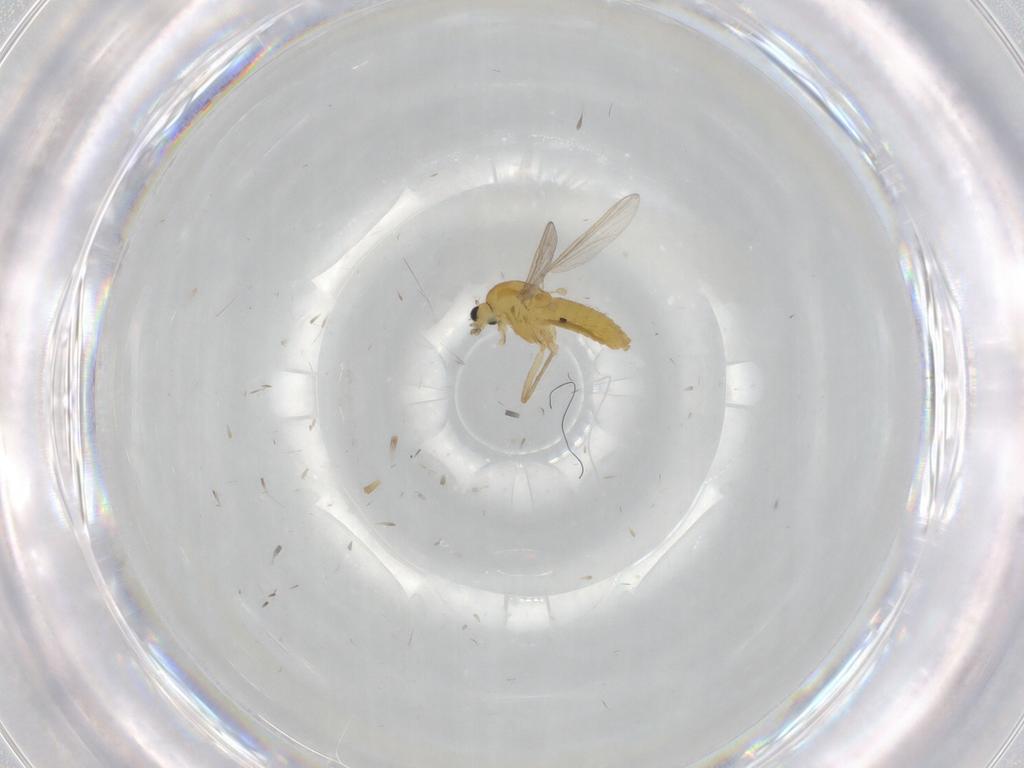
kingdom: Animalia
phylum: Arthropoda
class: Insecta
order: Diptera
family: Chironomidae
